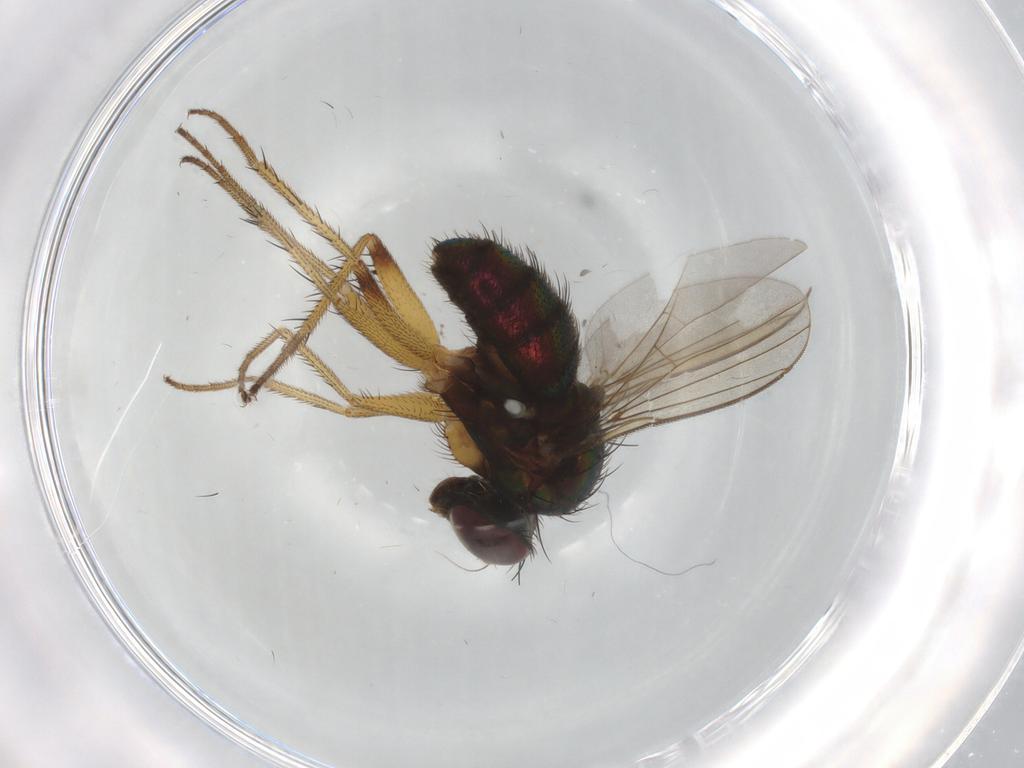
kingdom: Animalia
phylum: Arthropoda
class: Insecta
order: Diptera
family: Dolichopodidae
